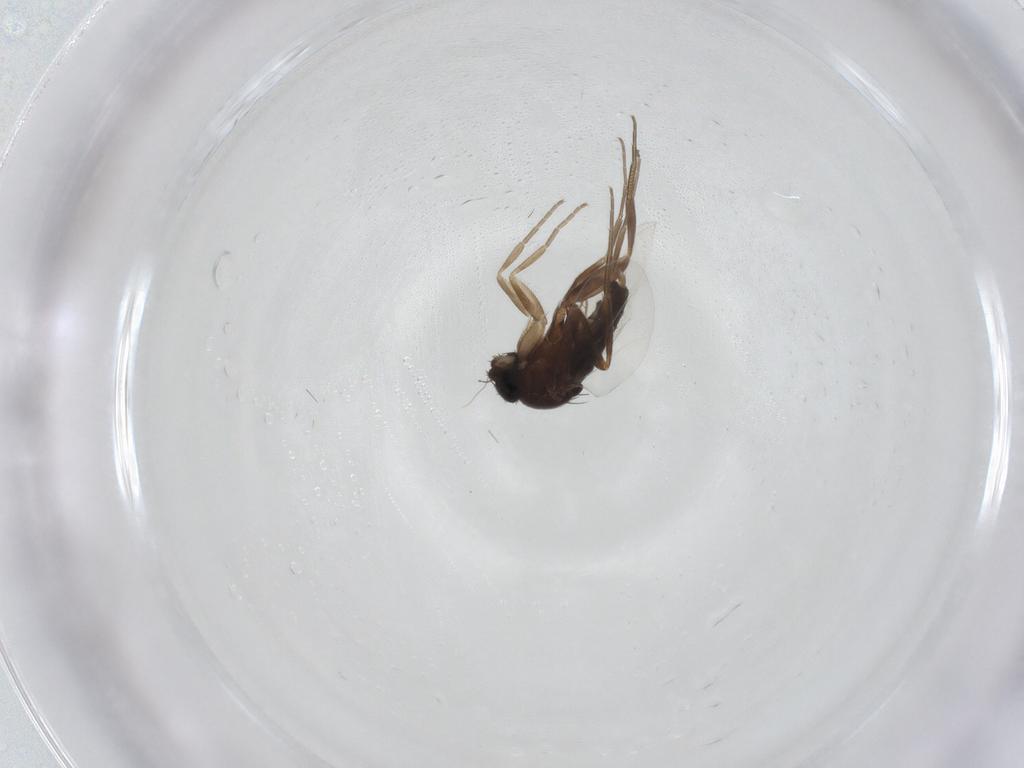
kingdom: Animalia
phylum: Arthropoda
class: Insecta
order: Diptera
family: Phoridae
